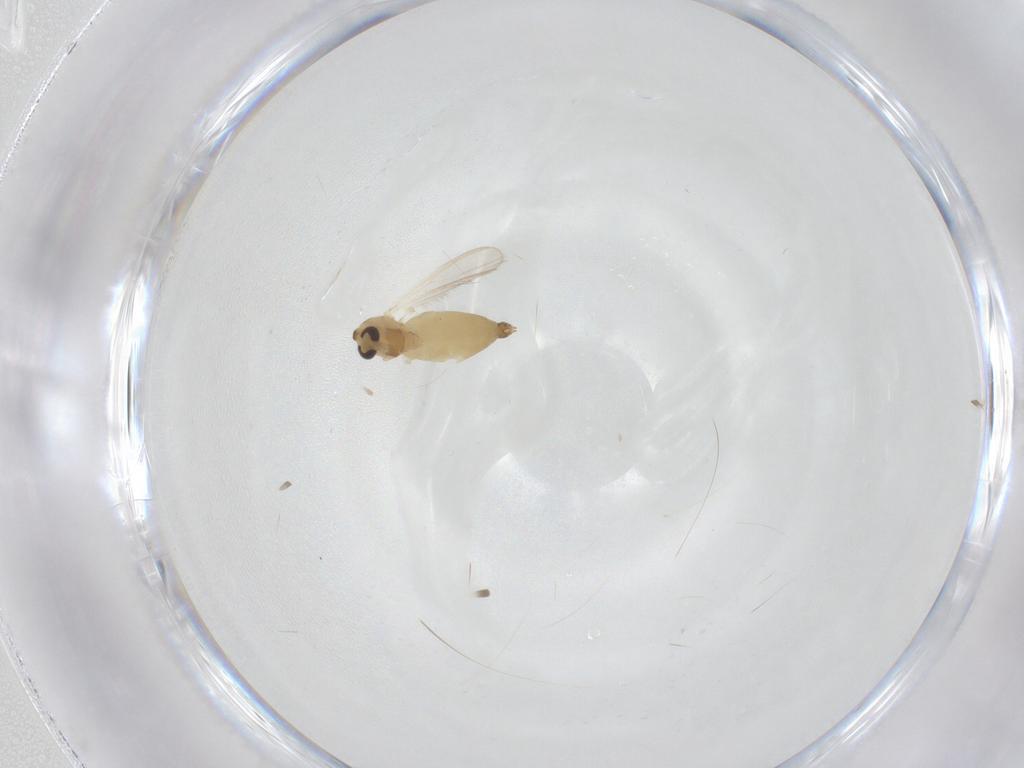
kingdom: Animalia
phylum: Arthropoda
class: Insecta
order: Diptera
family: Chironomidae
